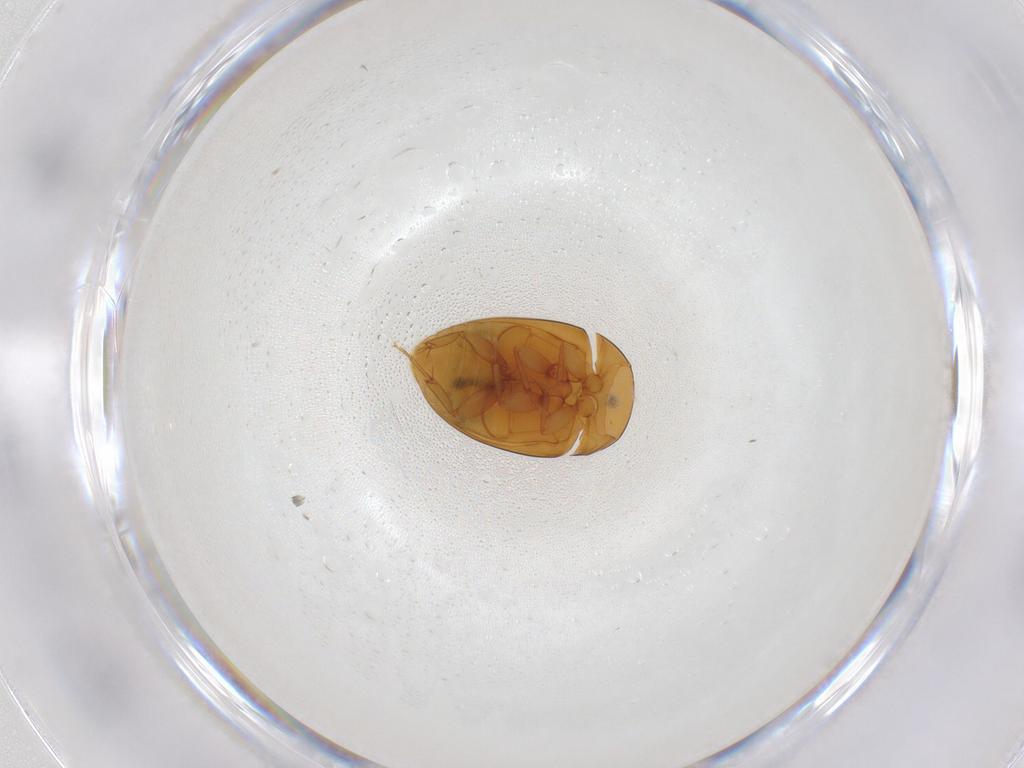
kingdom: Animalia
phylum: Arthropoda
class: Insecta
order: Coleoptera
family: Phalacridae
